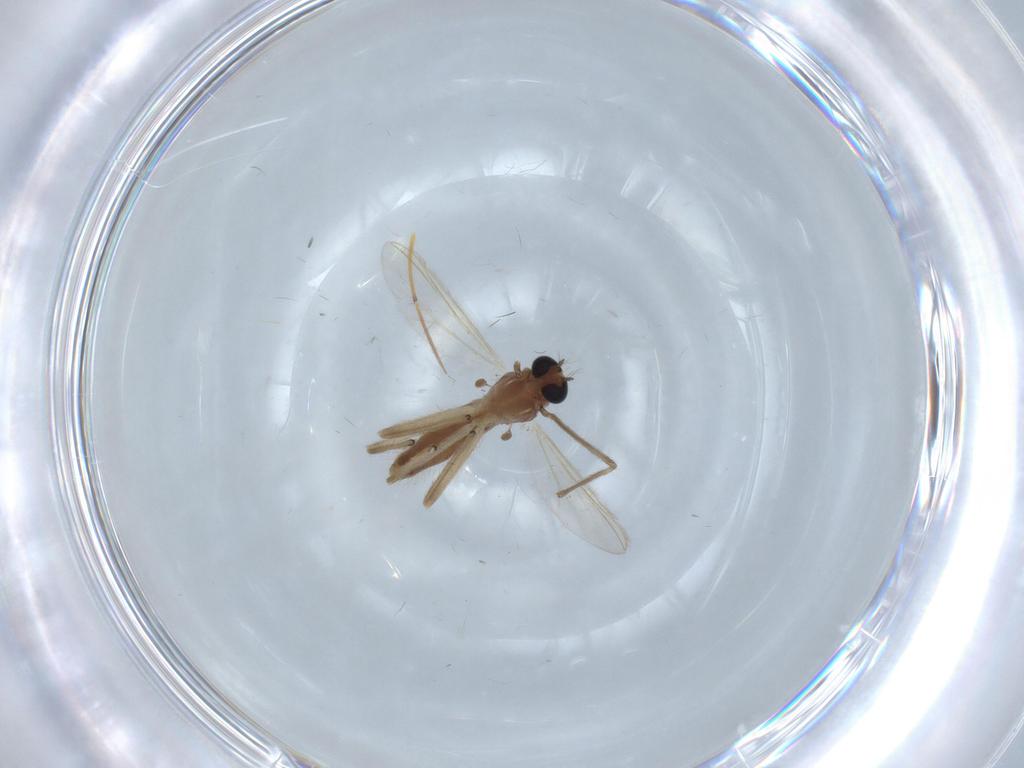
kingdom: Animalia
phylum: Arthropoda
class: Insecta
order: Diptera
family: Chironomidae
